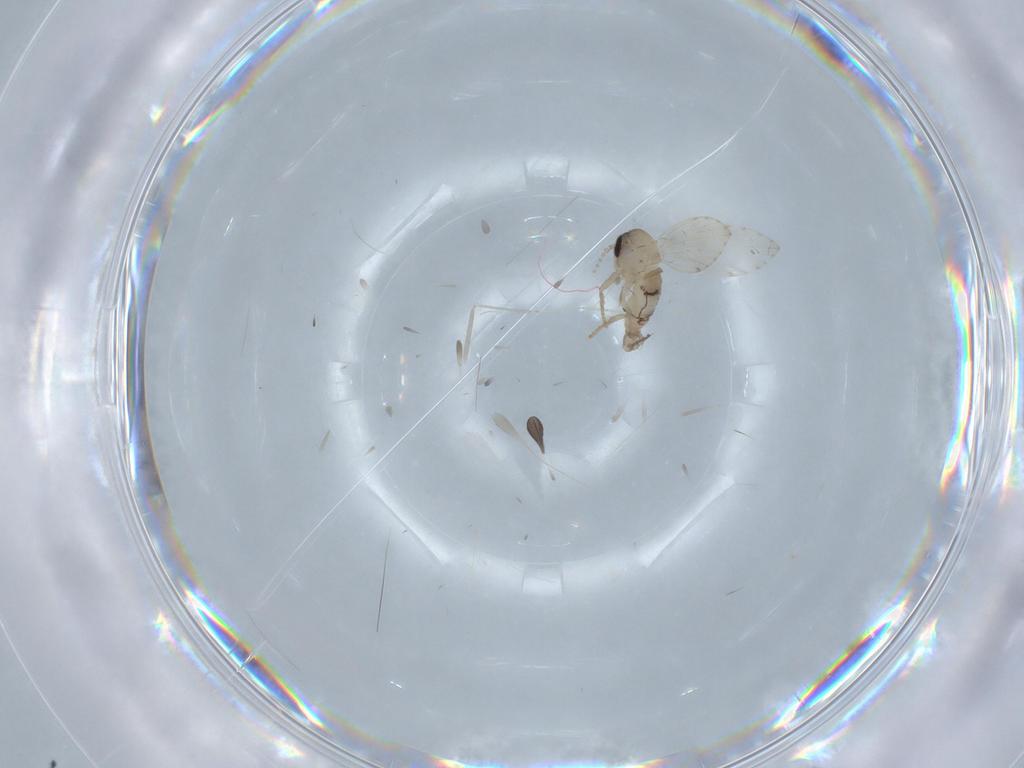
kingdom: Animalia
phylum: Arthropoda
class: Insecta
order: Diptera
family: Psychodidae
